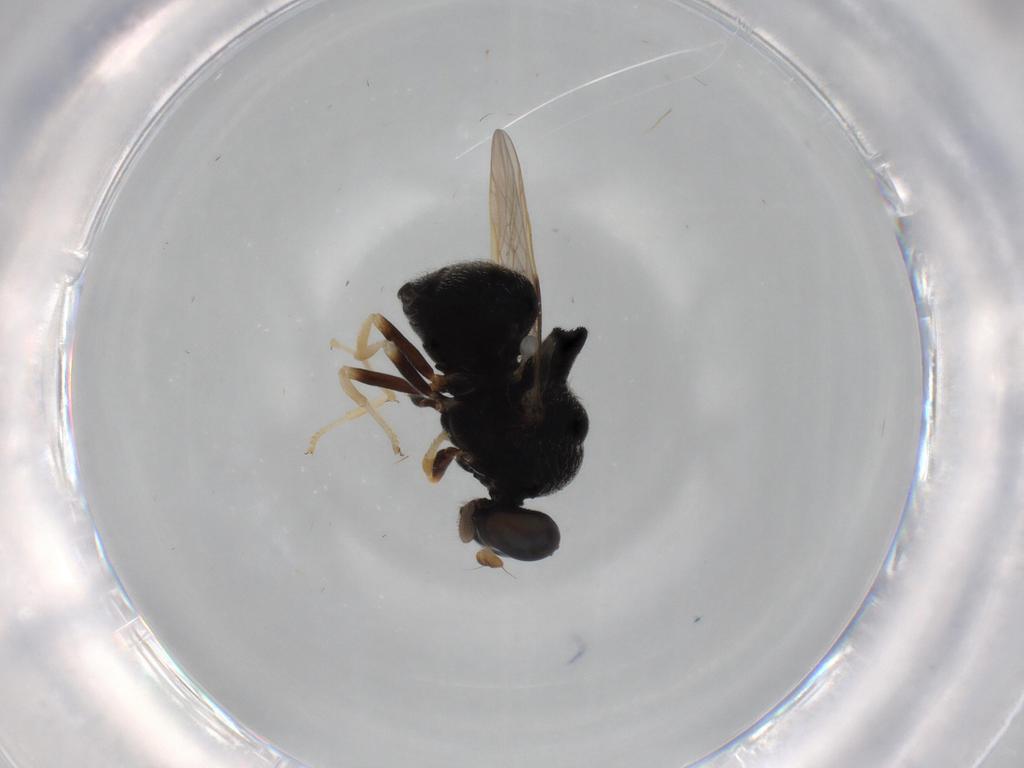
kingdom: Animalia
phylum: Arthropoda
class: Insecta
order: Diptera
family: Stratiomyidae
